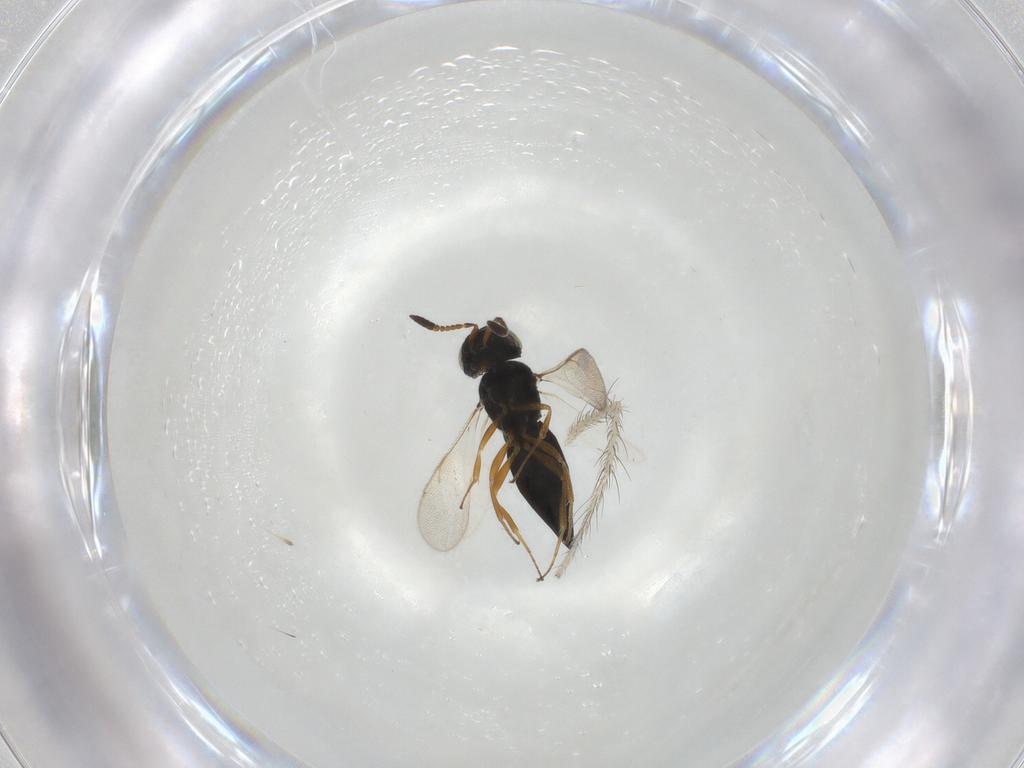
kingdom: Animalia
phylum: Arthropoda
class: Insecta
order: Hymenoptera
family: Scelionidae
